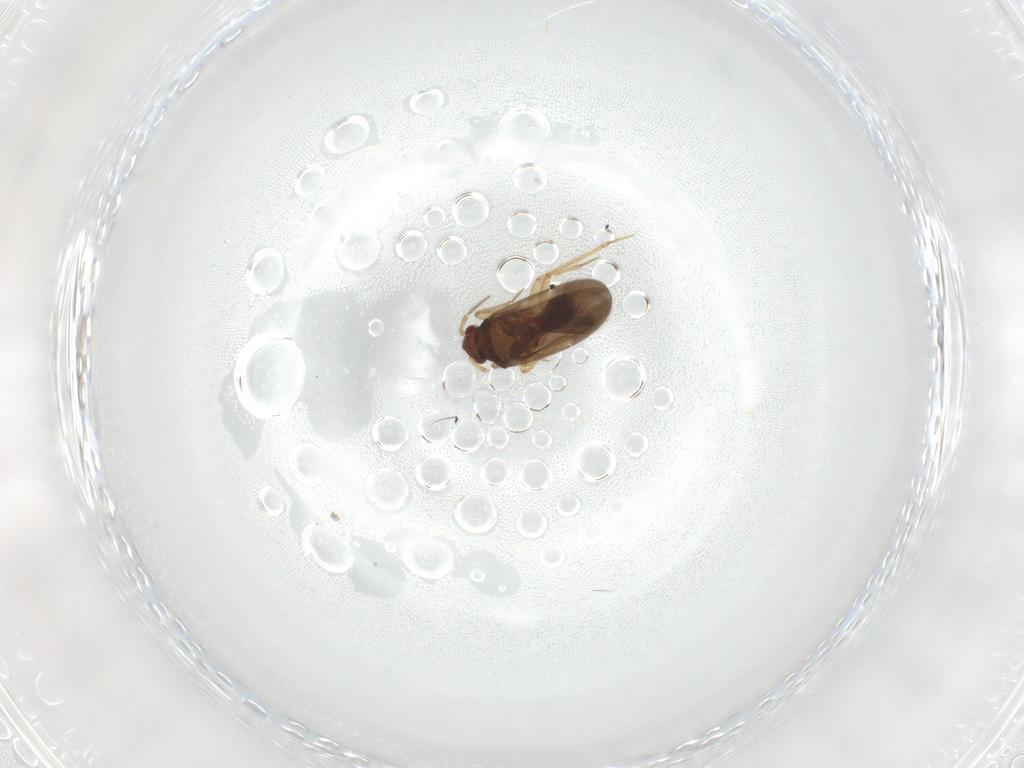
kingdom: Animalia
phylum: Arthropoda
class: Insecta
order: Hemiptera
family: Ceratocombidae
